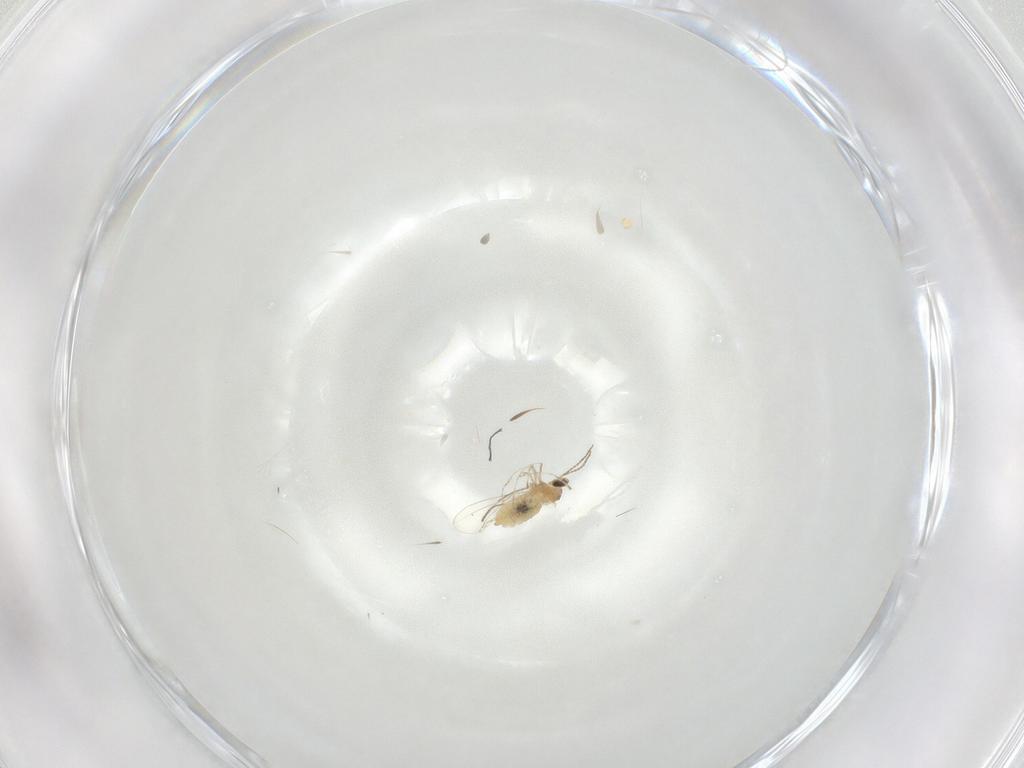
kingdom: Animalia
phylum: Arthropoda
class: Insecta
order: Diptera
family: Cecidomyiidae
